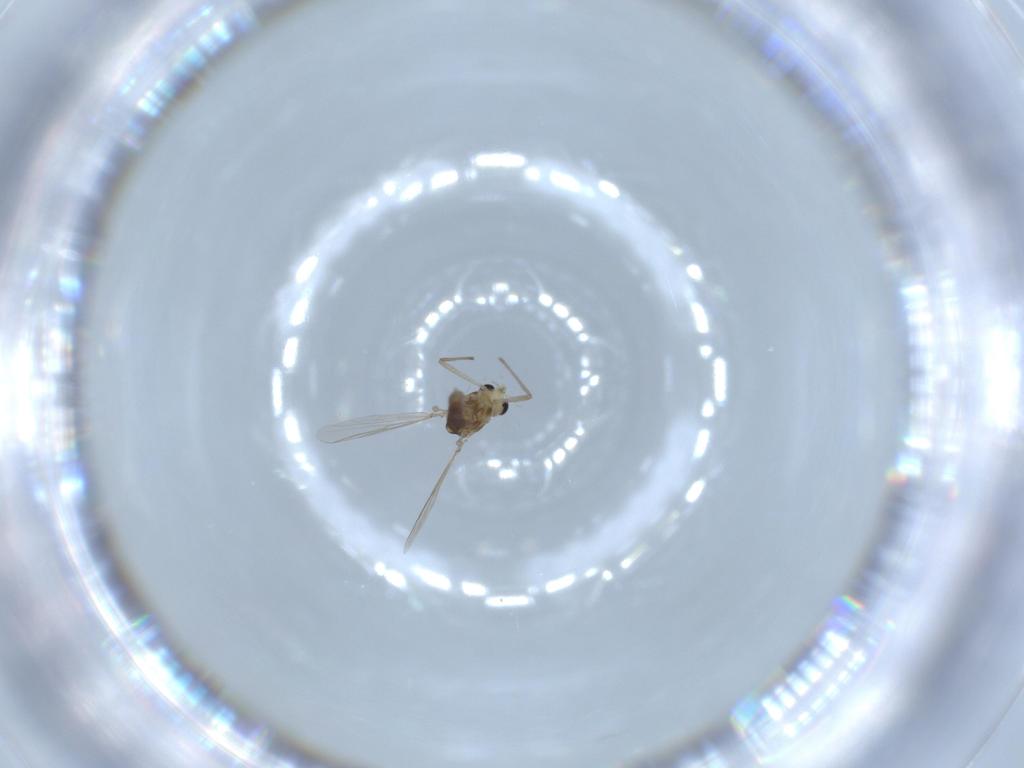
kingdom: Animalia
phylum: Arthropoda
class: Insecta
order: Diptera
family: Chironomidae
